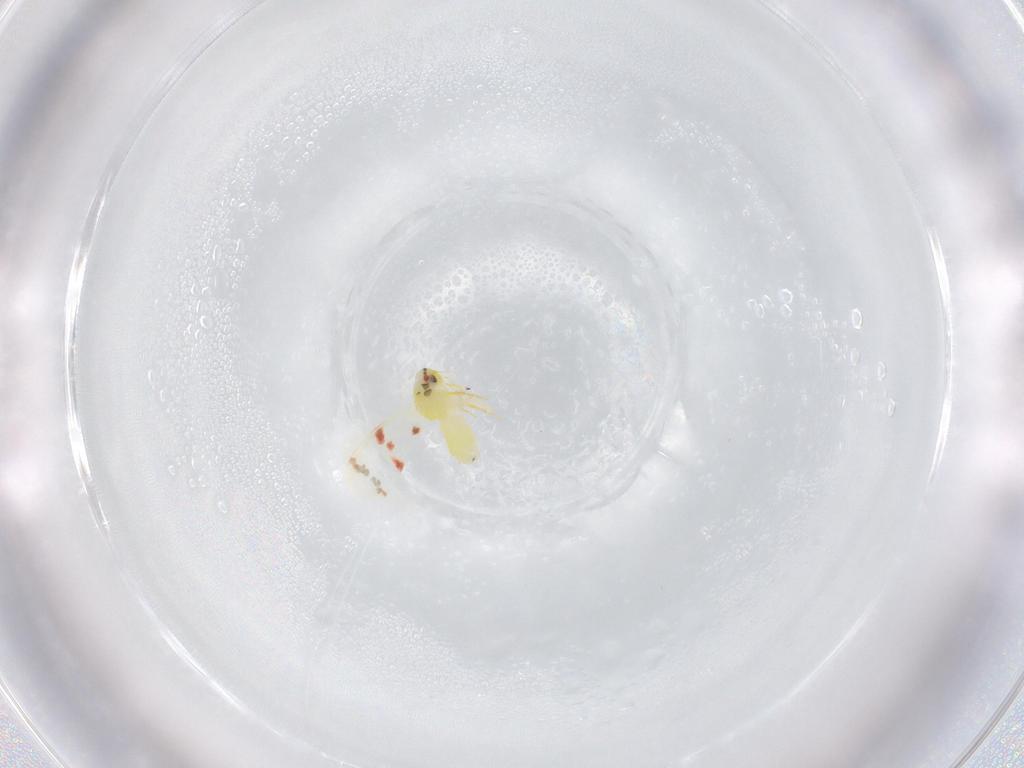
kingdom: Animalia
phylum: Arthropoda
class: Insecta
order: Hemiptera
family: Aleyrodidae
